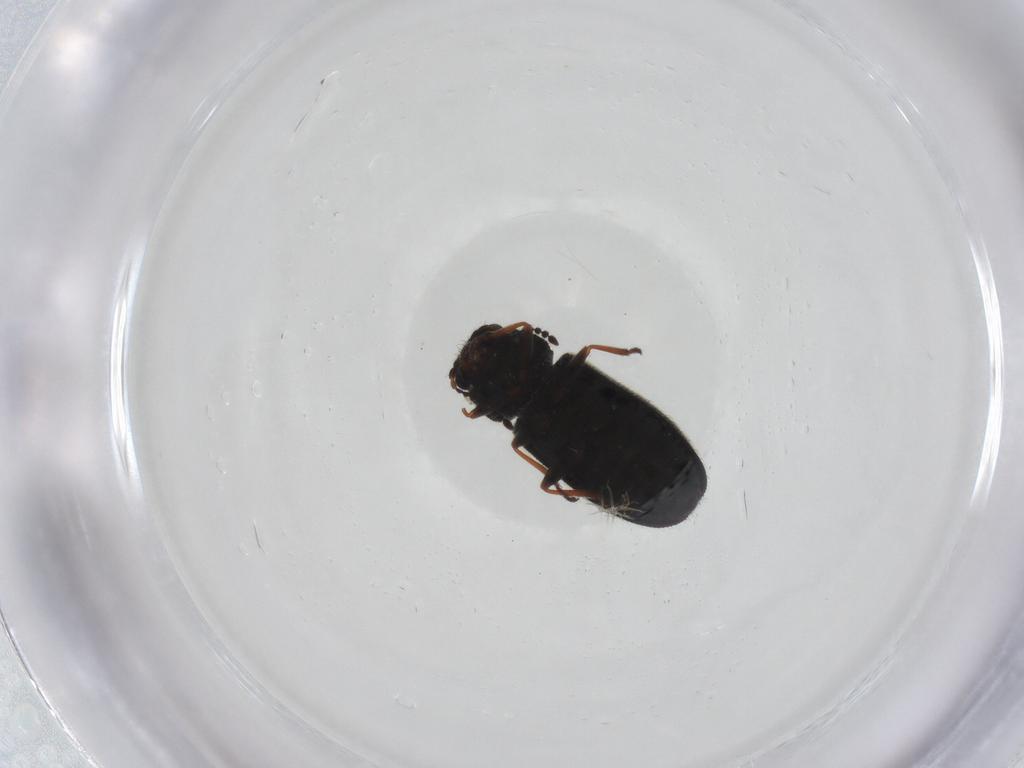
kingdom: Animalia
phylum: Arthropoda
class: Insecta
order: Coleoptera
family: Melyridae
